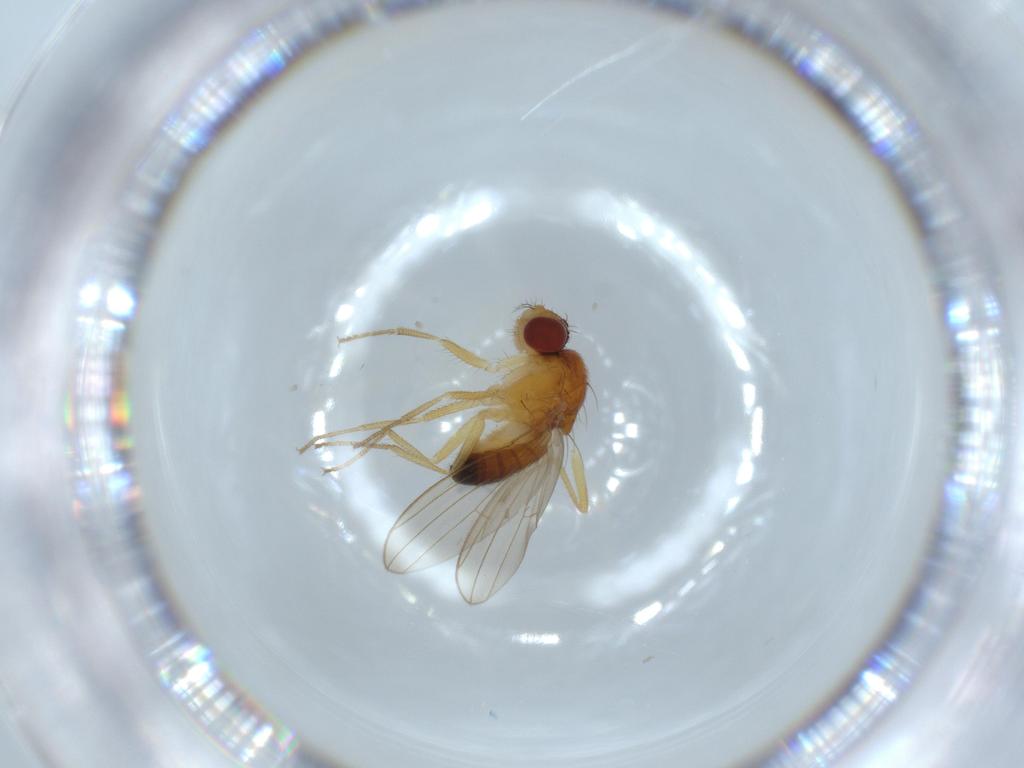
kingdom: Animalia
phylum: Arthropoda
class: Insecta
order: Diptera
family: Drosophilidae
